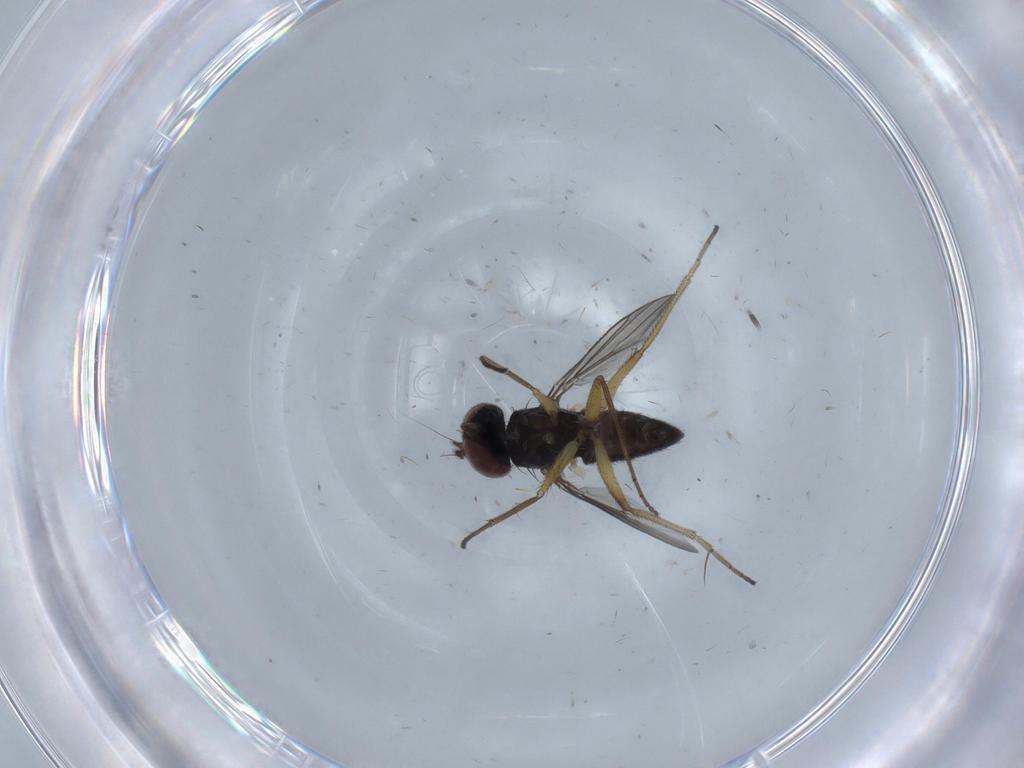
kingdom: Animalia
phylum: Arthropoda
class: Insecta
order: Diptera
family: Dolichopodidae
